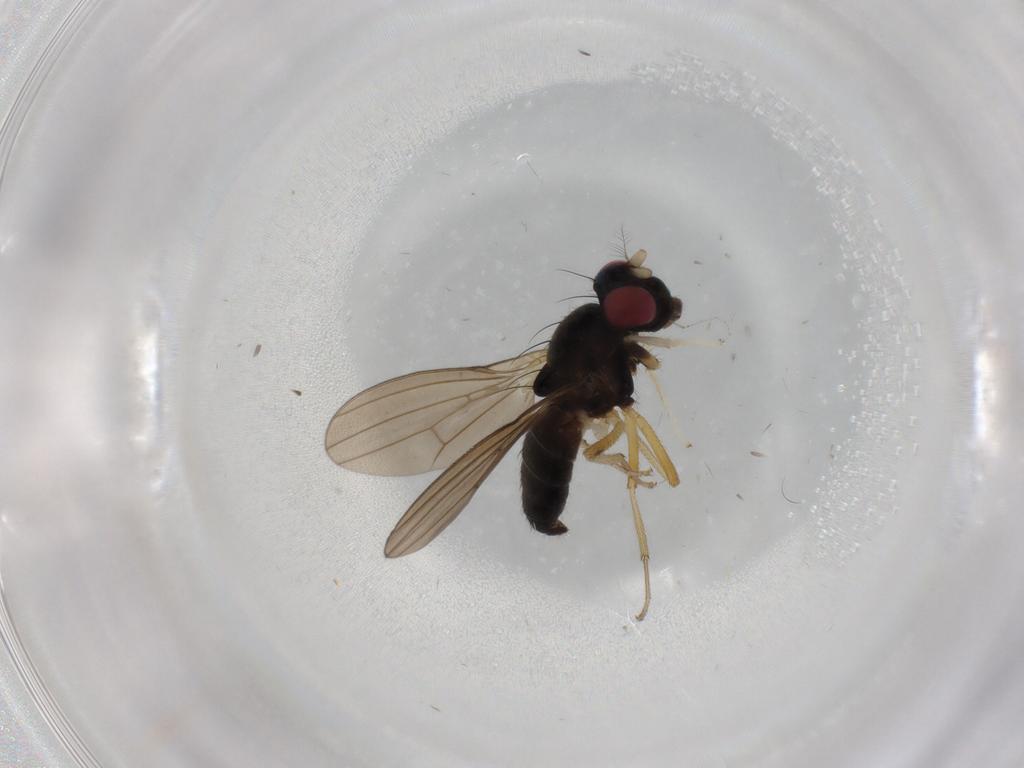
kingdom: Animalia
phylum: Arthropoda
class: Insecta
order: Diptera
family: Lauxaniidae
